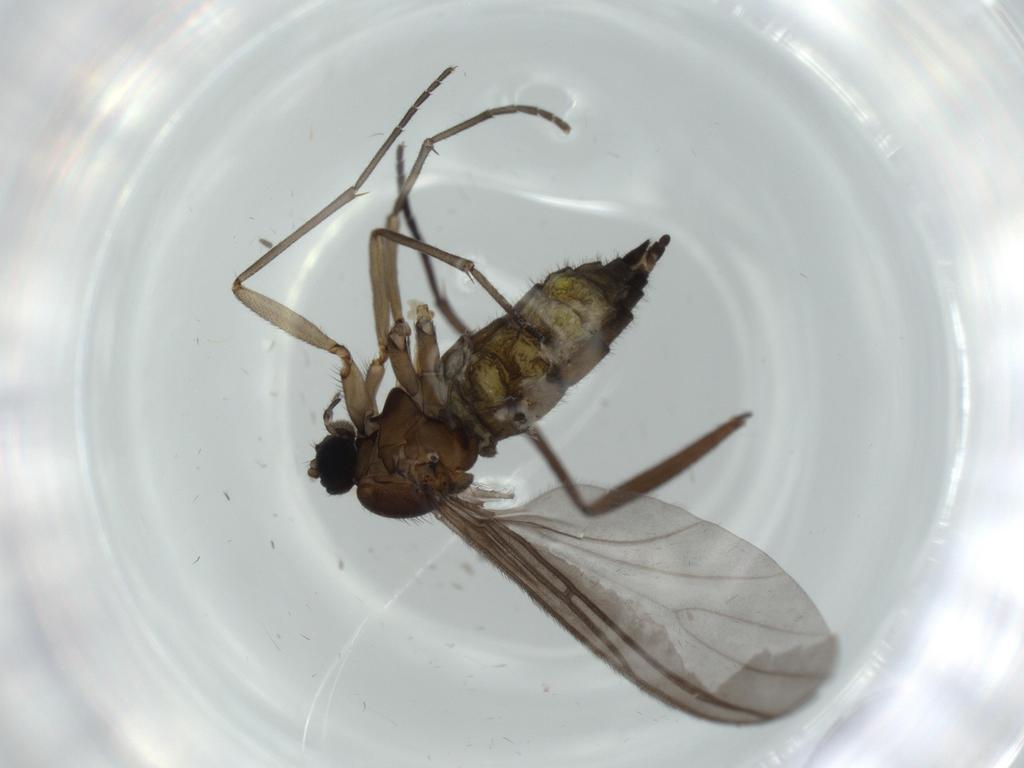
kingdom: Animalia
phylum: Arthropoda
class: Insecta
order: Diptera
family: Sciaridae
